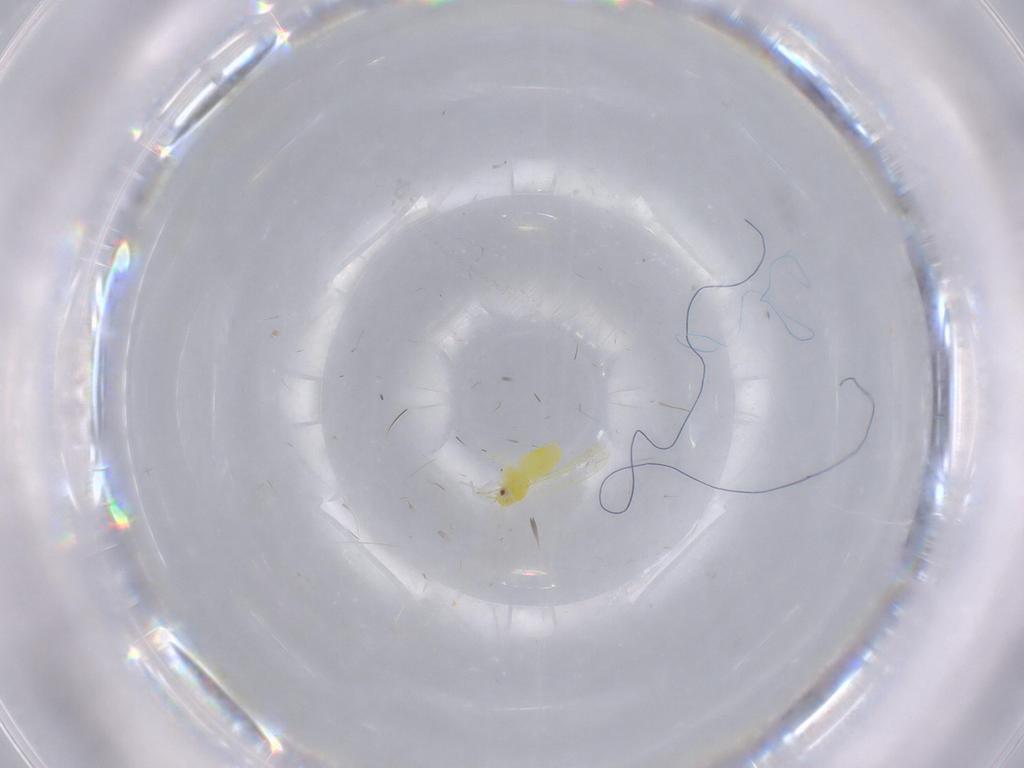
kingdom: Animalia
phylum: Arthropoda
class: Insecta
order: Hemiptera
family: Aleyrodidae
